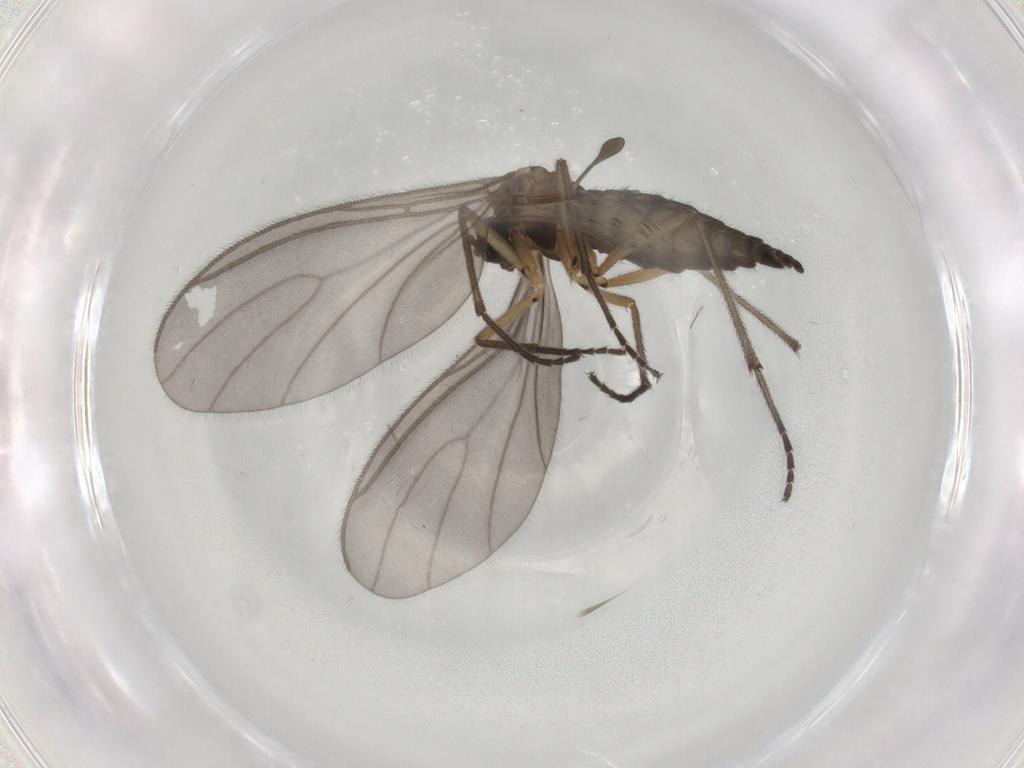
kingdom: Animalia
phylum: Arthropoda
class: Insecta
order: Diptera
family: Sciaridae
